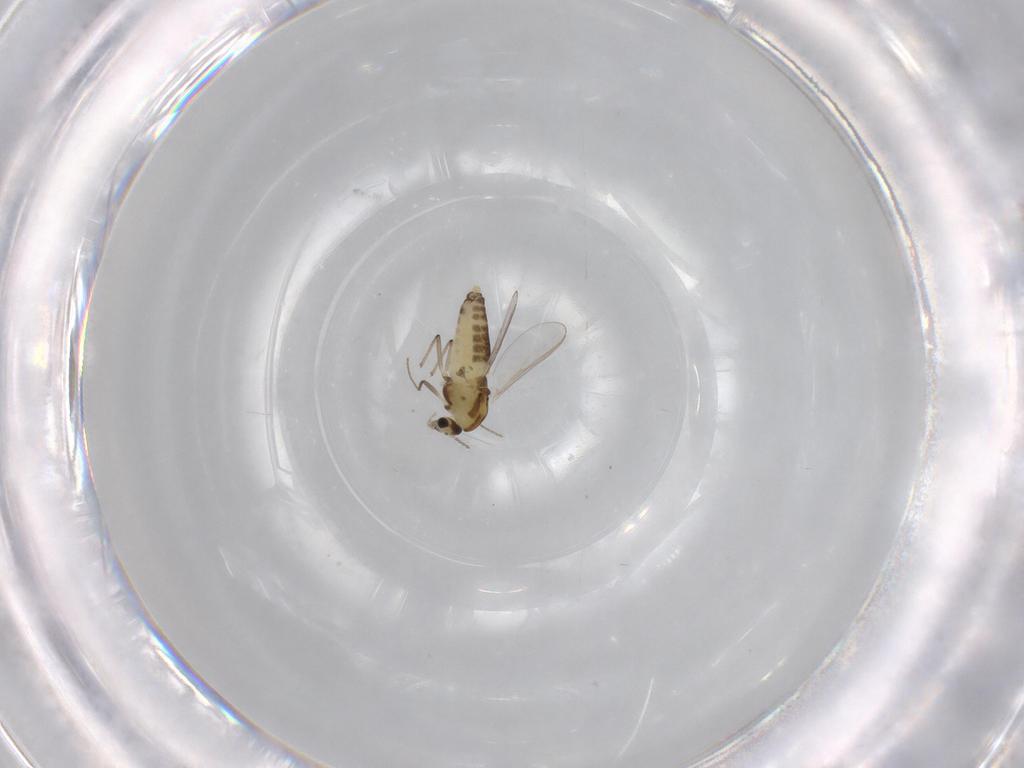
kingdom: Animalia
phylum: Arthropoda
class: Insecta
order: Diptera
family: Chironomidae
